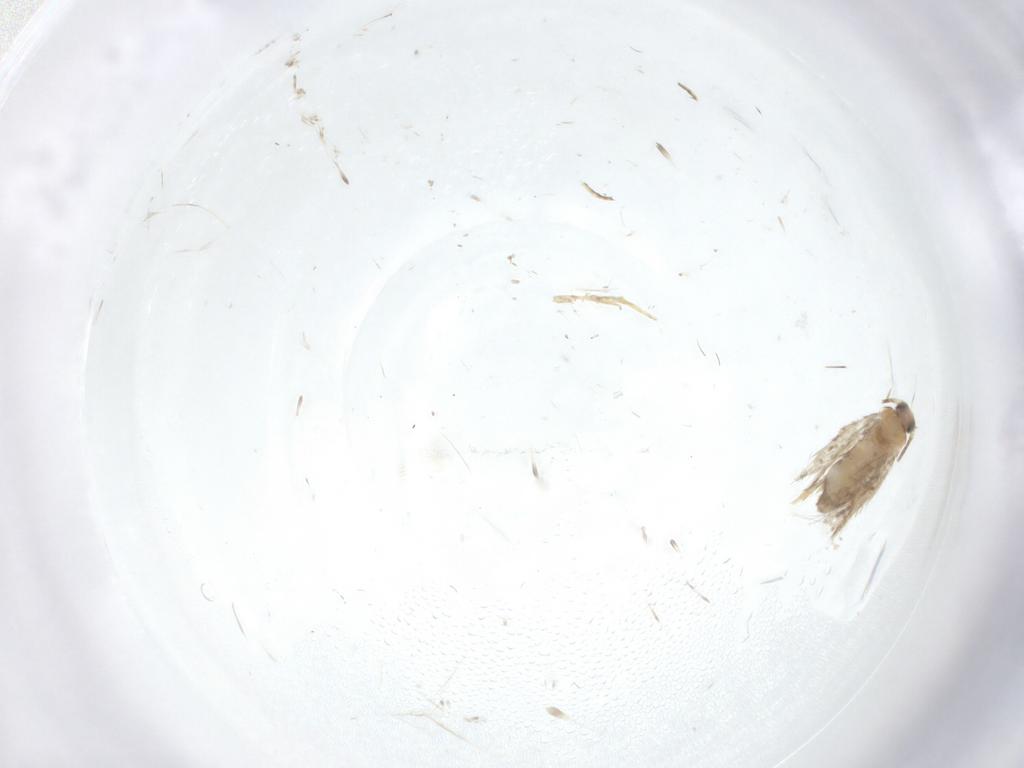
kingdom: Animalia
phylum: Arthropoda
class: Insecta
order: Lepidoptera
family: Nepticulidae
